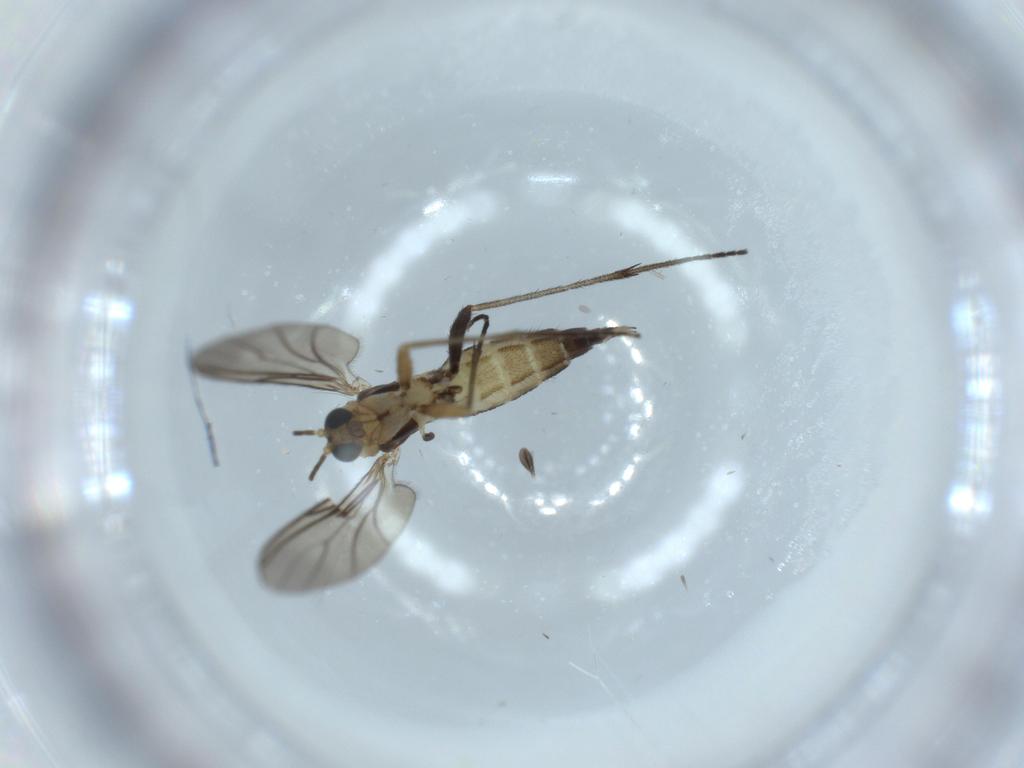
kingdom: Animalia
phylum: Arthropoda
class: Insecta
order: Diptera
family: Sciaridae
